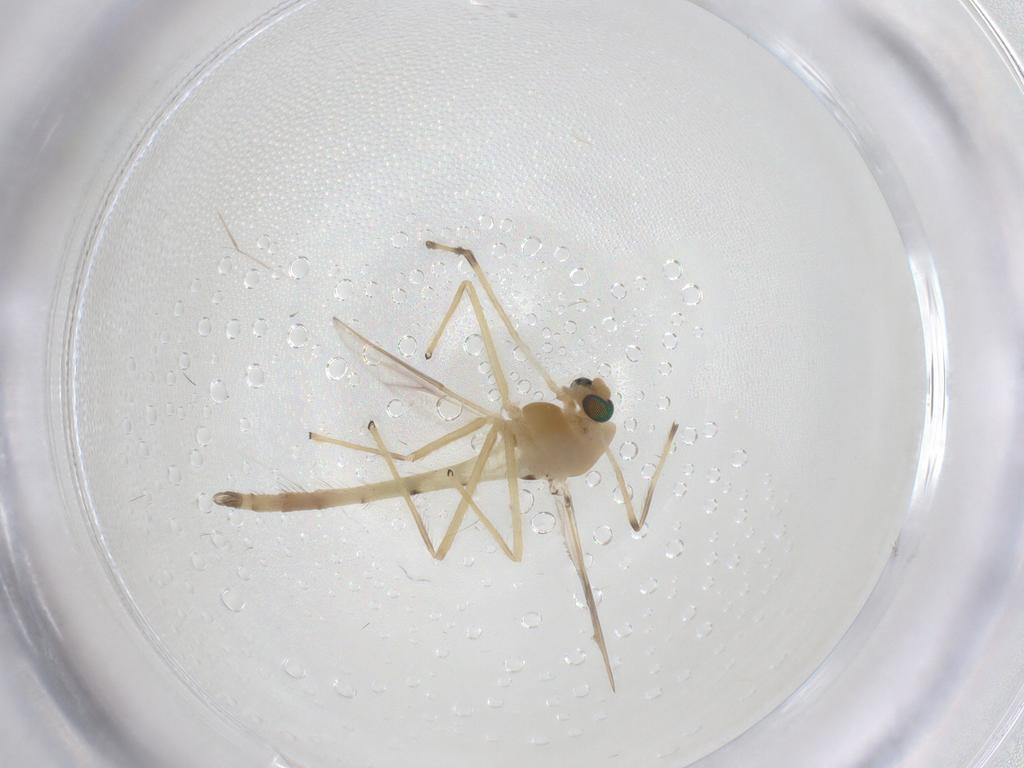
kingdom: Animalia
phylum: Arthropoda
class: Insecta
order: Diptera
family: Chironomidae
